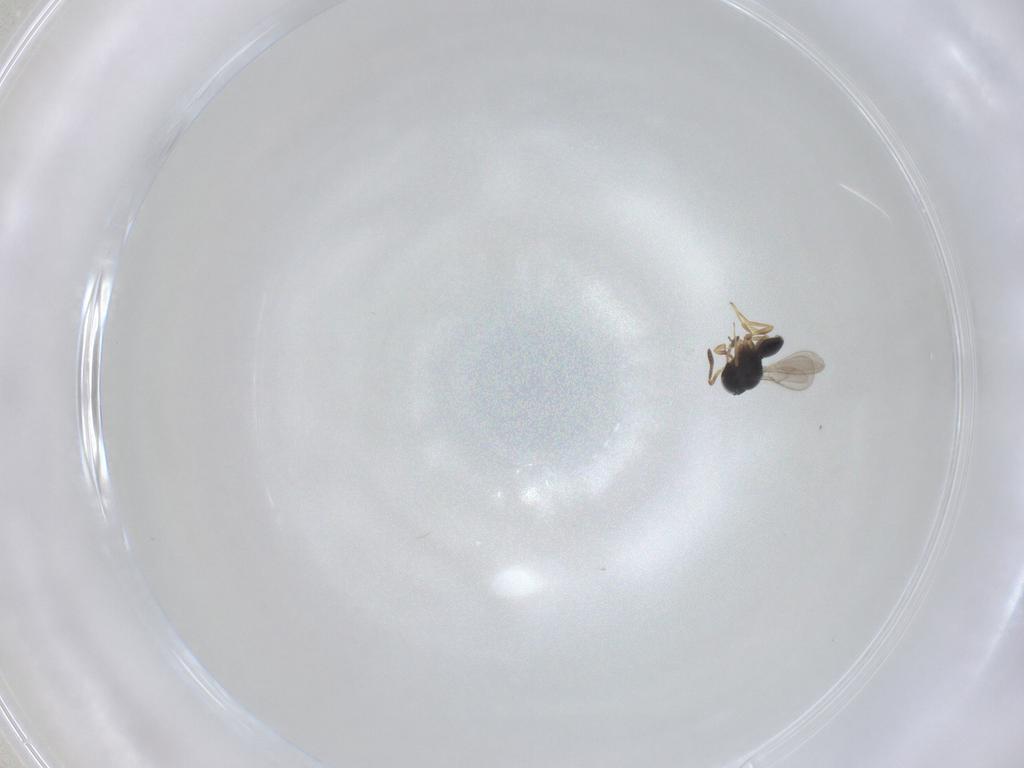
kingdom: Animalia
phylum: Arthropoda
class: Insecta
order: Hymenoptera
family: Scelionidae
